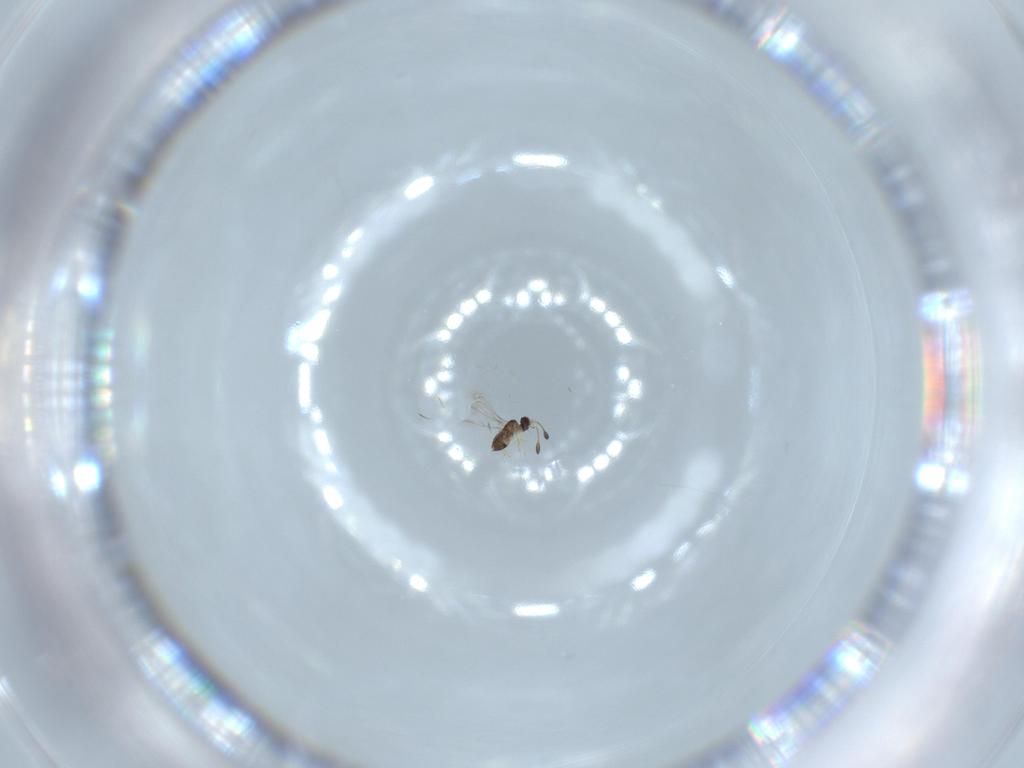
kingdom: Animalia
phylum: Arthropoda
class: Insecta
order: Hymenoptera
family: Scelionidae
